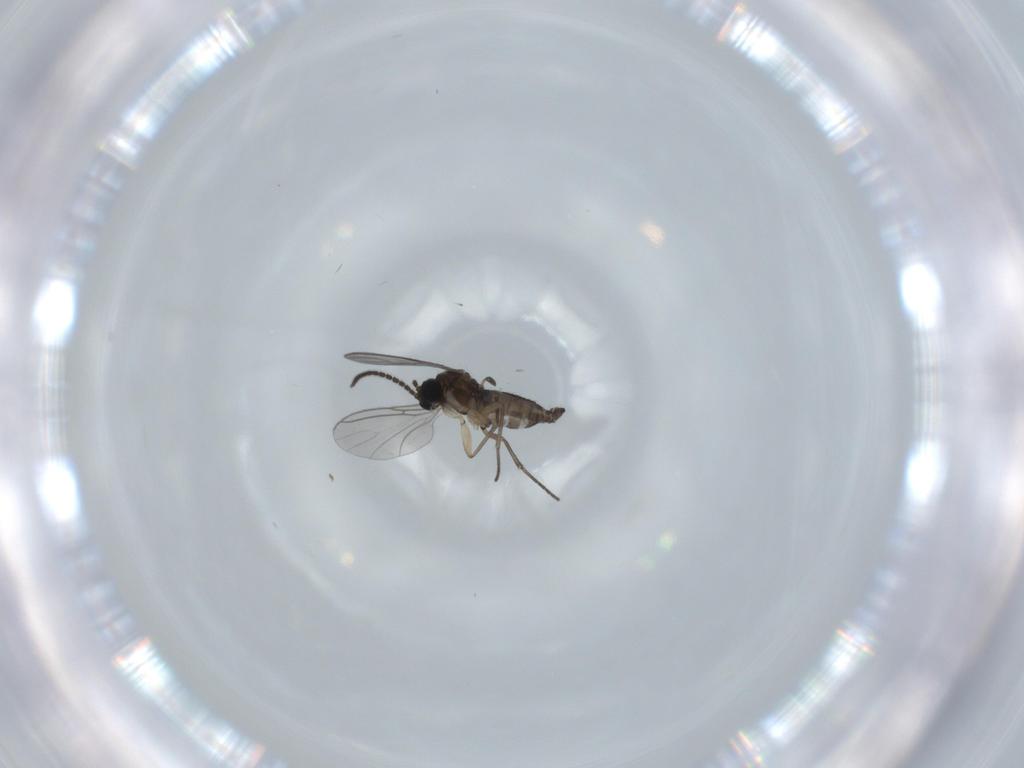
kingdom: Animalia
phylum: Arthropoda
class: Insecta
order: Diptera
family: Sciaridae
